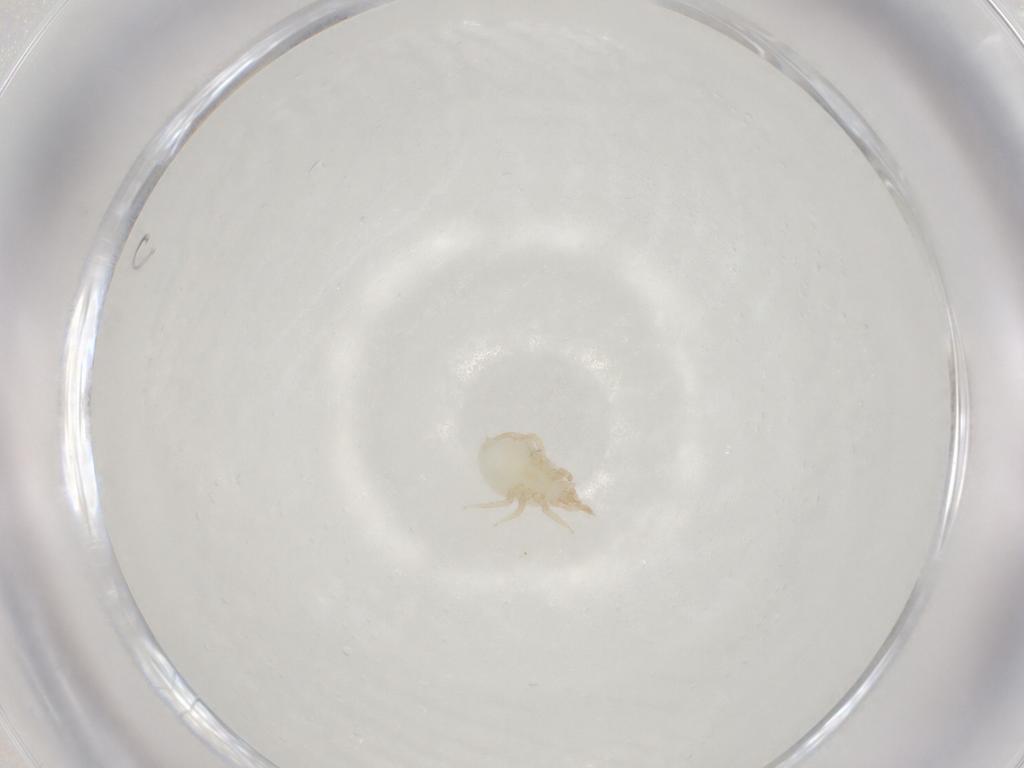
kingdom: Animalia
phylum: Arthropoda
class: Arachnida
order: Mesostigmata
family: Melicharidae
